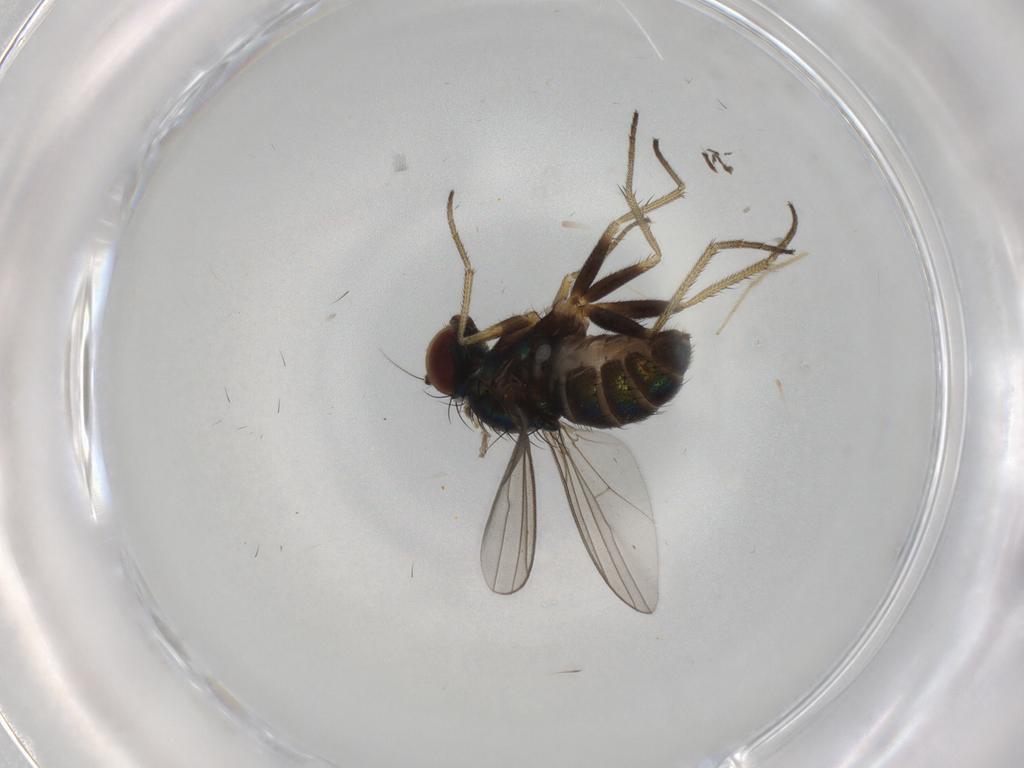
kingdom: Animalia
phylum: Arthropoda
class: Insecta
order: Diptera
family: Dolichopodidae
